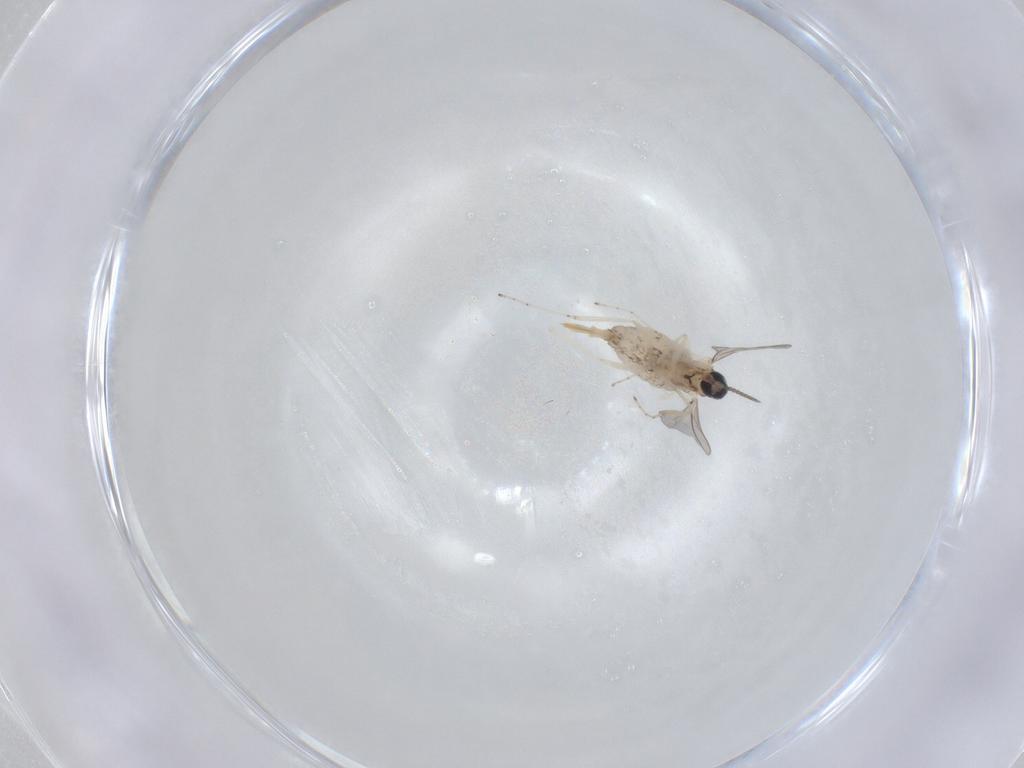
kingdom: Animalia
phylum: Arthropoda
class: Insecta
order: Diptera
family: Cecidomyiidae
